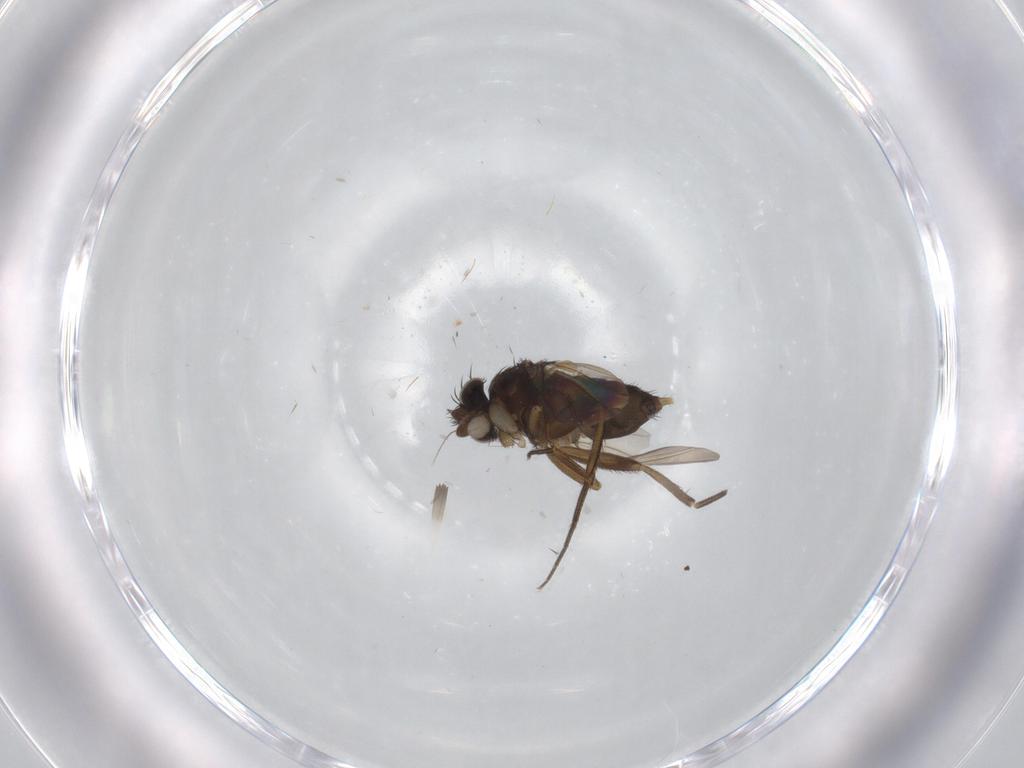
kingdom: Animalia
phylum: Arthropoda
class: Insecta
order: Diptera
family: Phoridae
